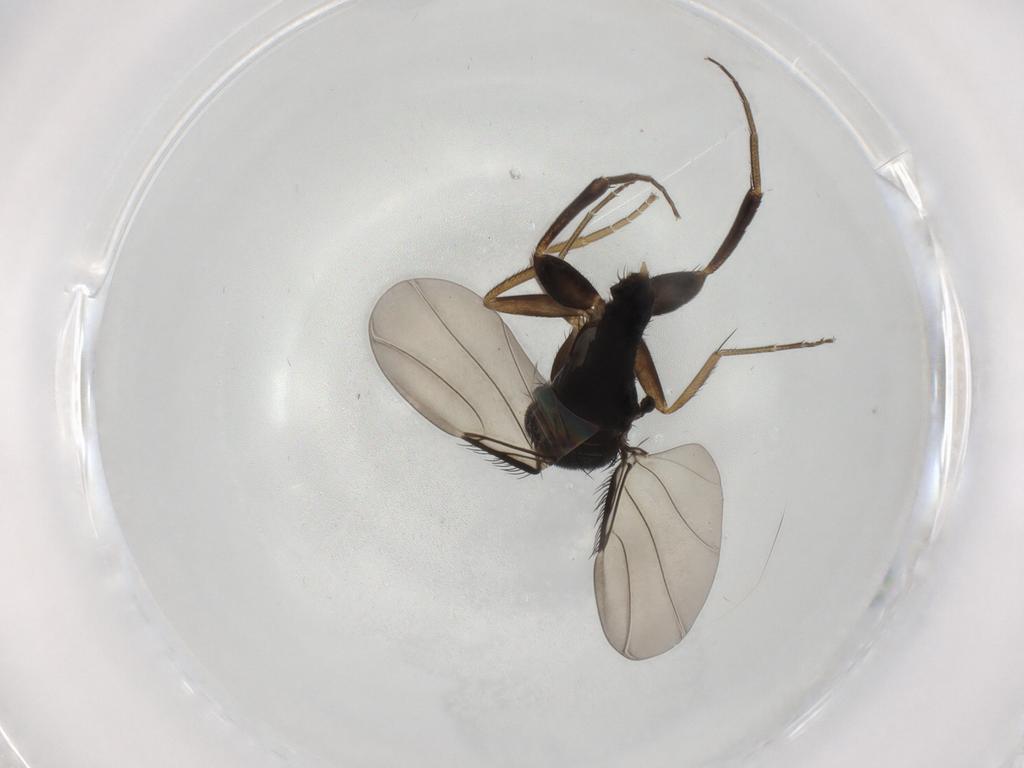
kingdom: Animalia
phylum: Arthropoda
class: Insecta
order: Diptera
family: Phoridae
